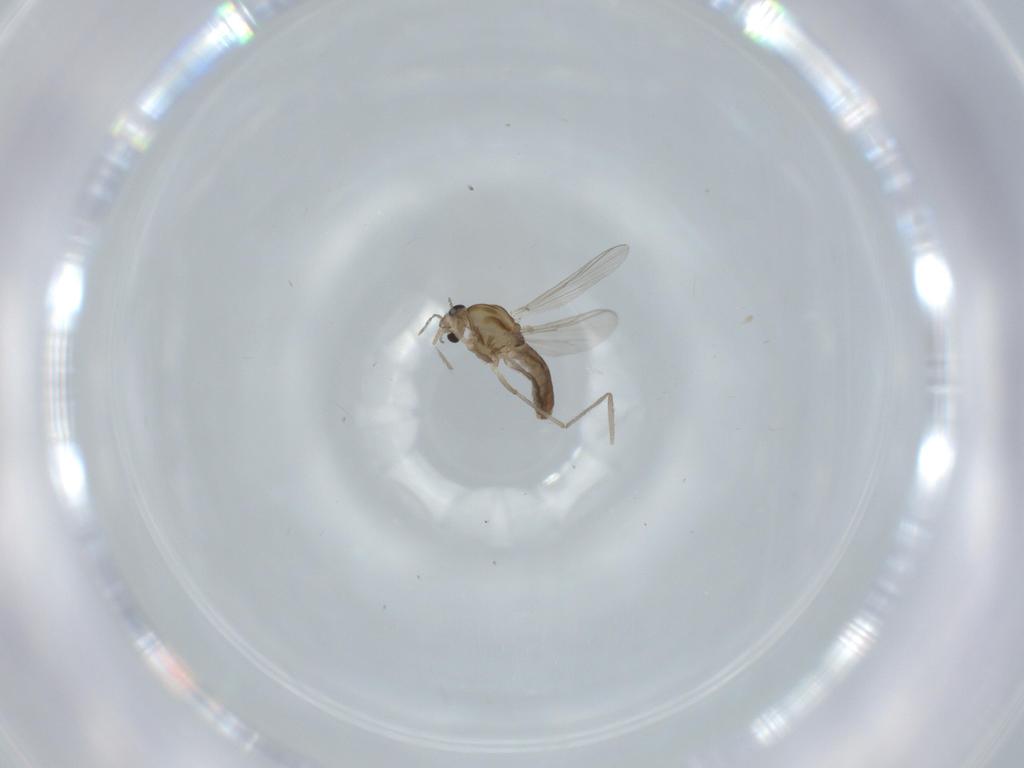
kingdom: Animalia
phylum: Arthropoda
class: Insecta
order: Diptera
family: Chironomidae
